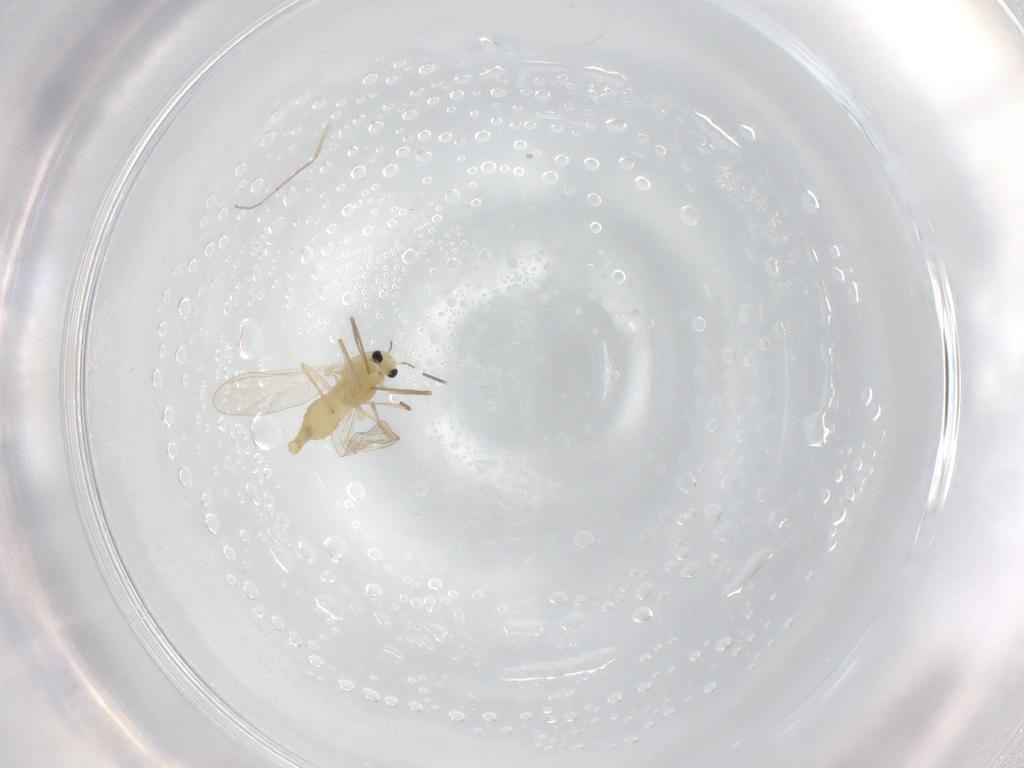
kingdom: Animalia
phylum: Arthropoda
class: Insecta
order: Diptera
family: Chironomidae
